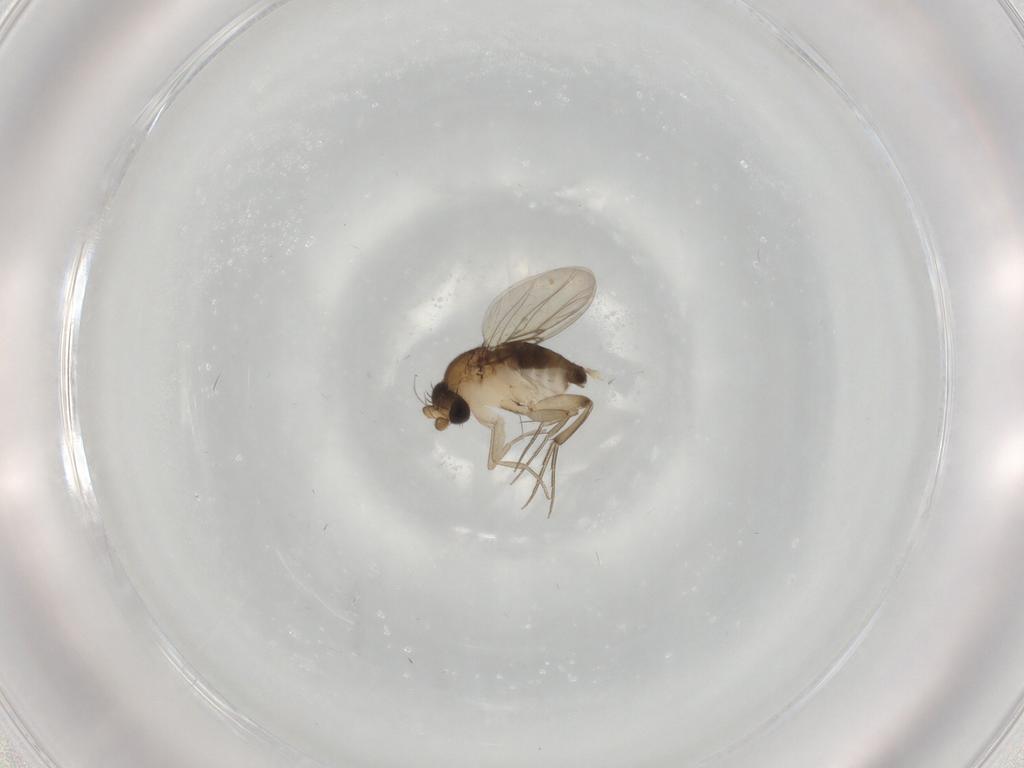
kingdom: Animalia
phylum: Arthropoda
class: Insecta
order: Diptera
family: Phoridae
